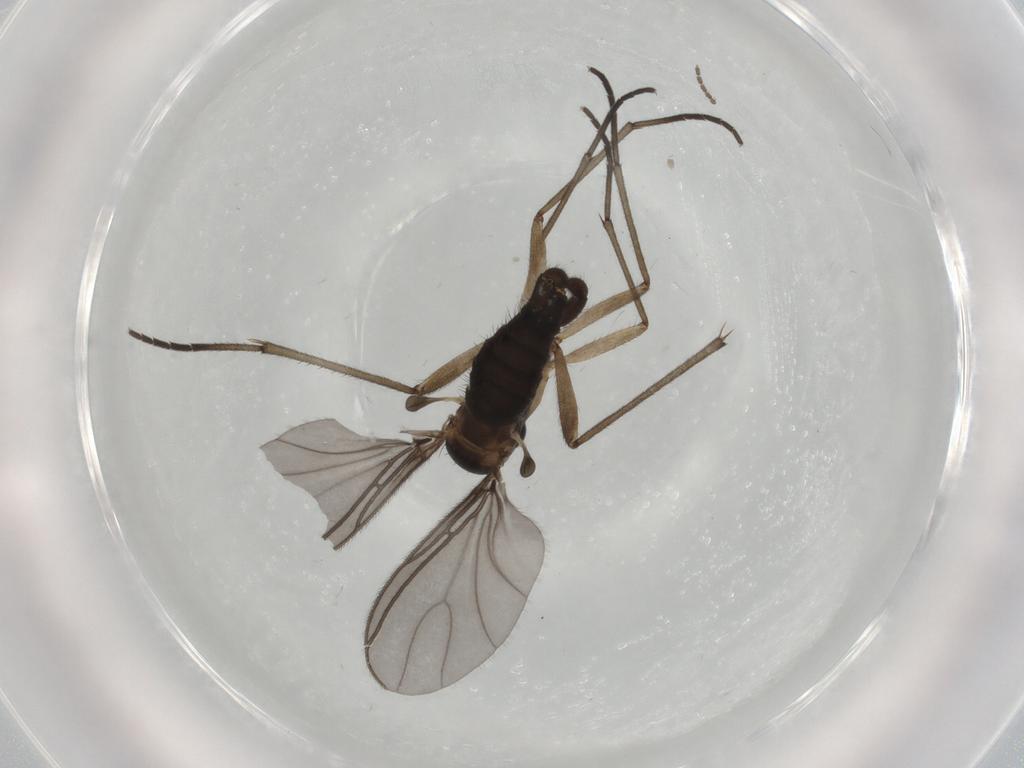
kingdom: Animalia
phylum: Arthropoda
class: Insecta
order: Diptera
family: Sciaridae
